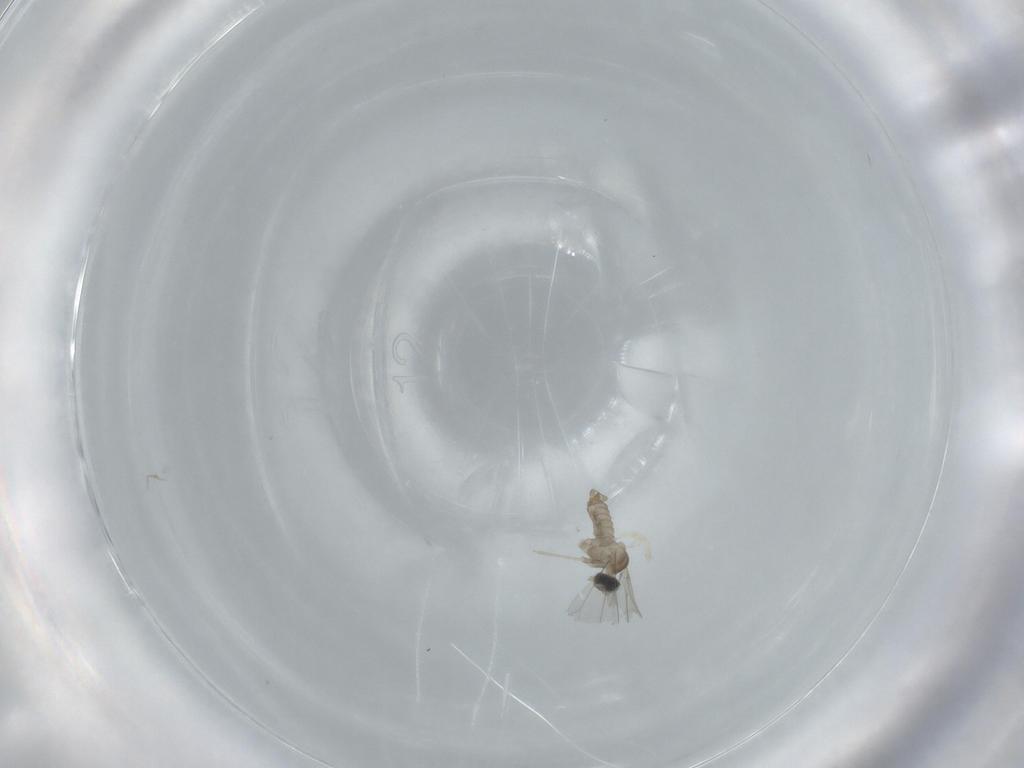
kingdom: Animalia
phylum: Arthropoda
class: Insecta
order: Diptera
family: Cecidomyiidae
